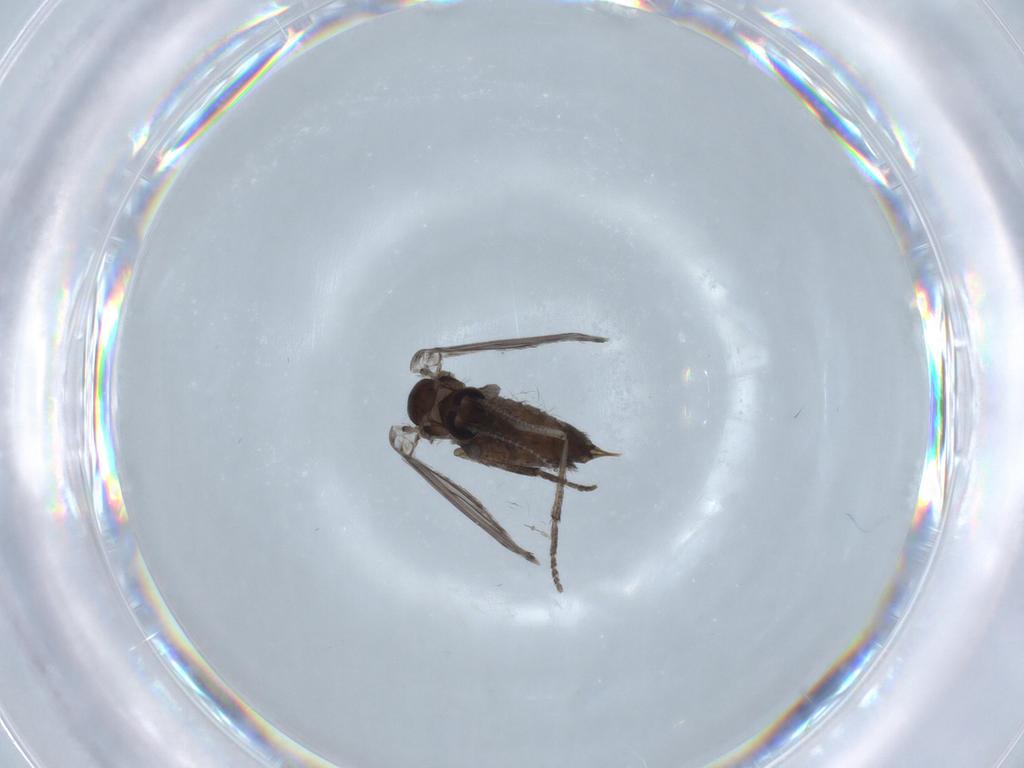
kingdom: Animalia
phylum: Arthropoda
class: Insecta
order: Diptera
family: Psychodidae
